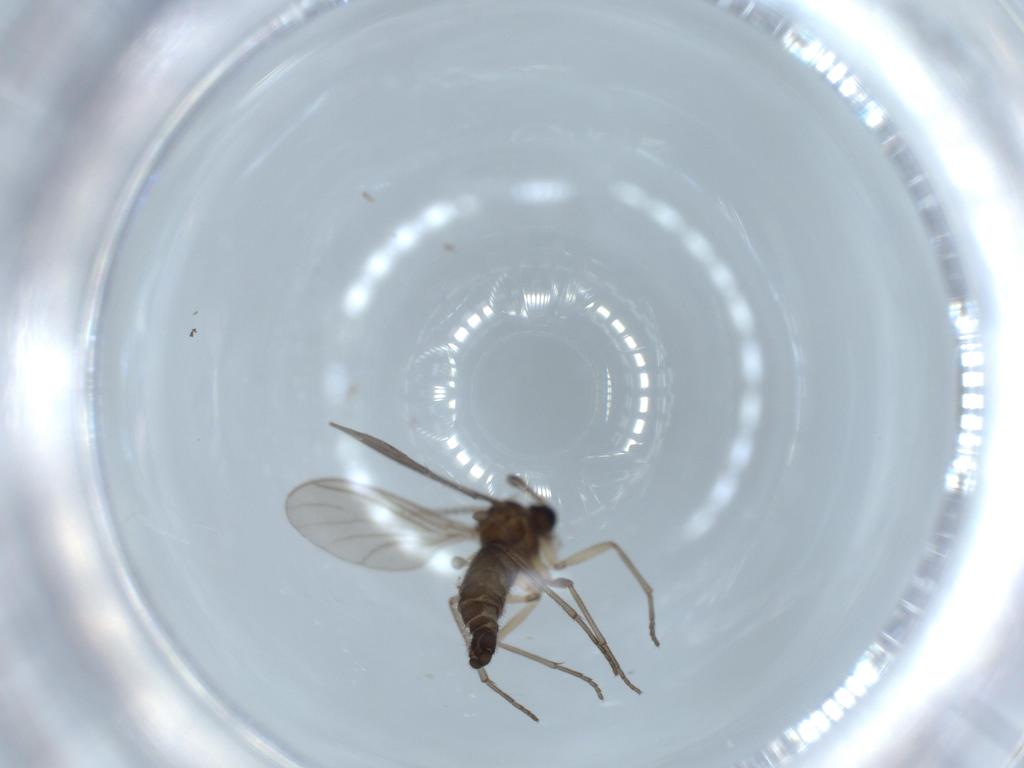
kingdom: Animalia
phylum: Arthropoda
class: Insecta
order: Diptera
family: Sciaridae
